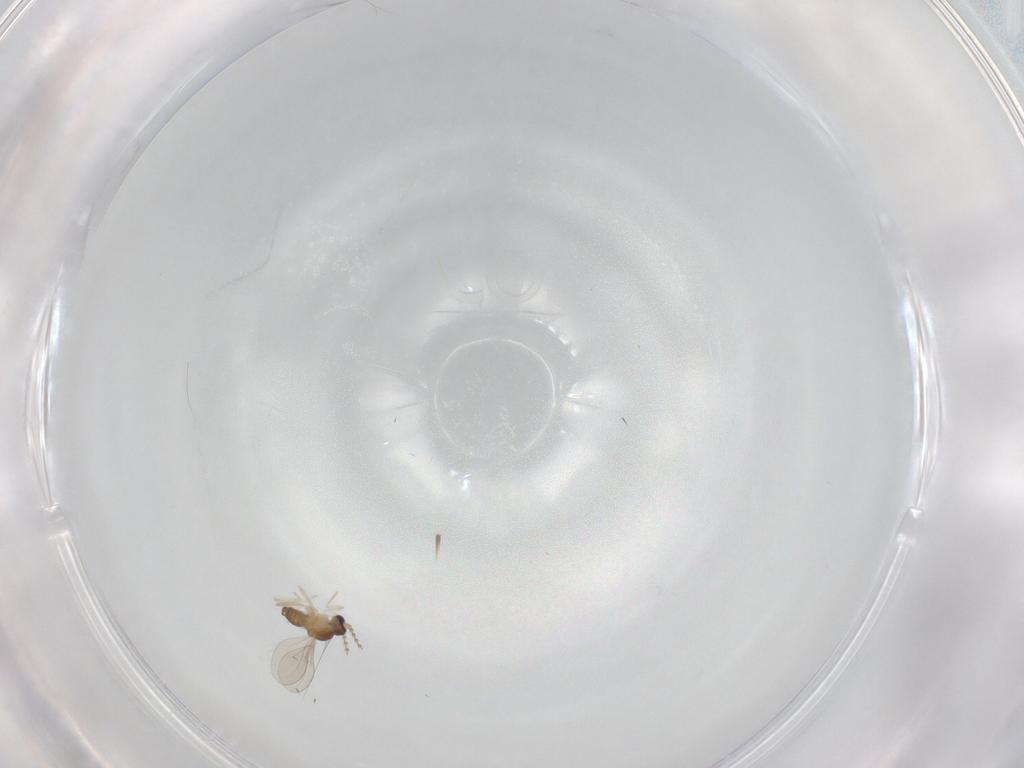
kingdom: Animalia
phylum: Arthropoda
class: Insecta
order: Diptera
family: Cecidomyiidae
